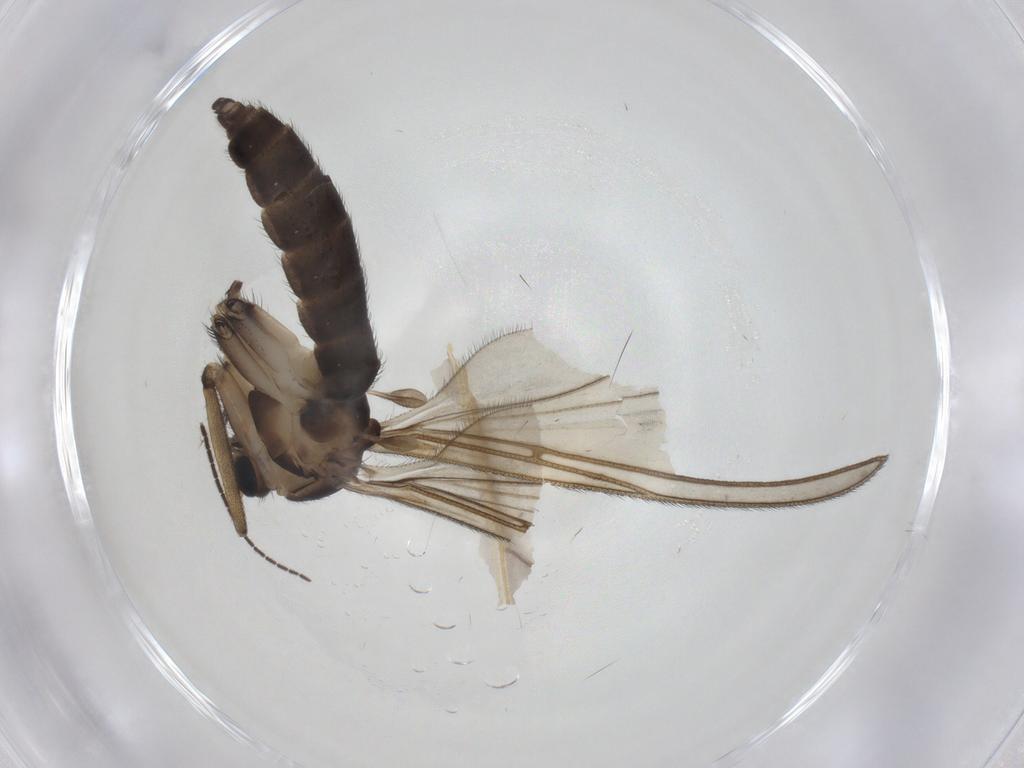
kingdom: Animalia
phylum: Arthropoda
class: Insecta
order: Diptera
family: Sciaridae
